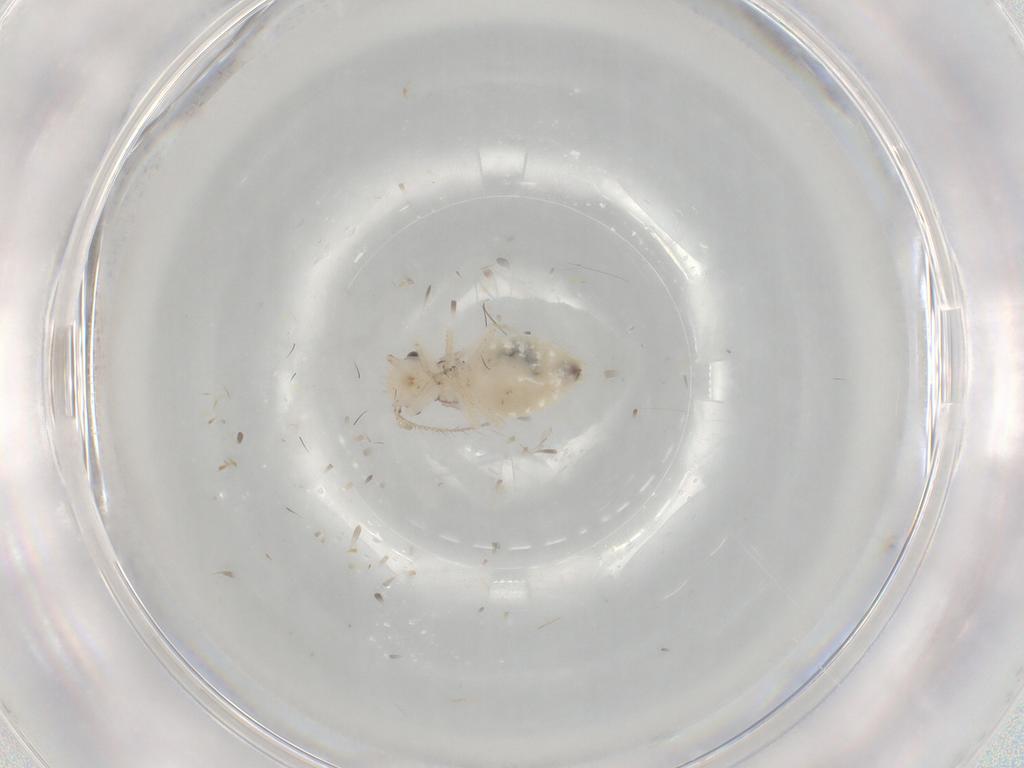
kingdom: Animalia
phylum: Arthropoda
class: Insecta
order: Psocodea
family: Pseudocaeciliidae
